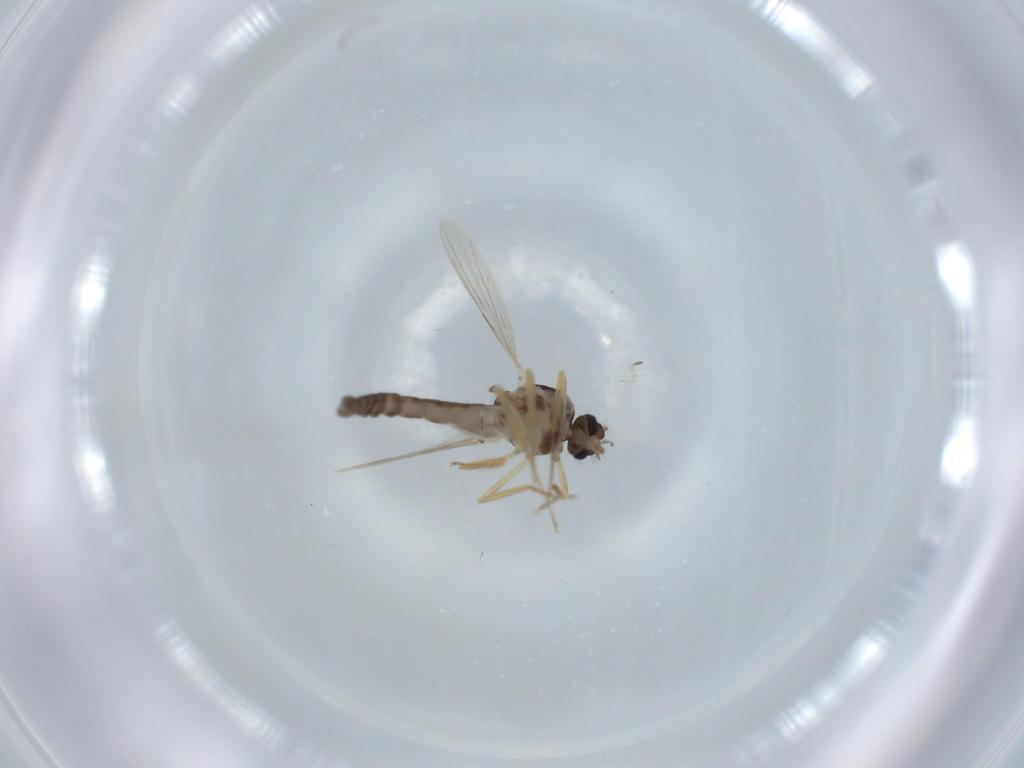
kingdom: Animalia
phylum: Arthropoda
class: Insecta
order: Diptera
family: Ceratopogonidae
